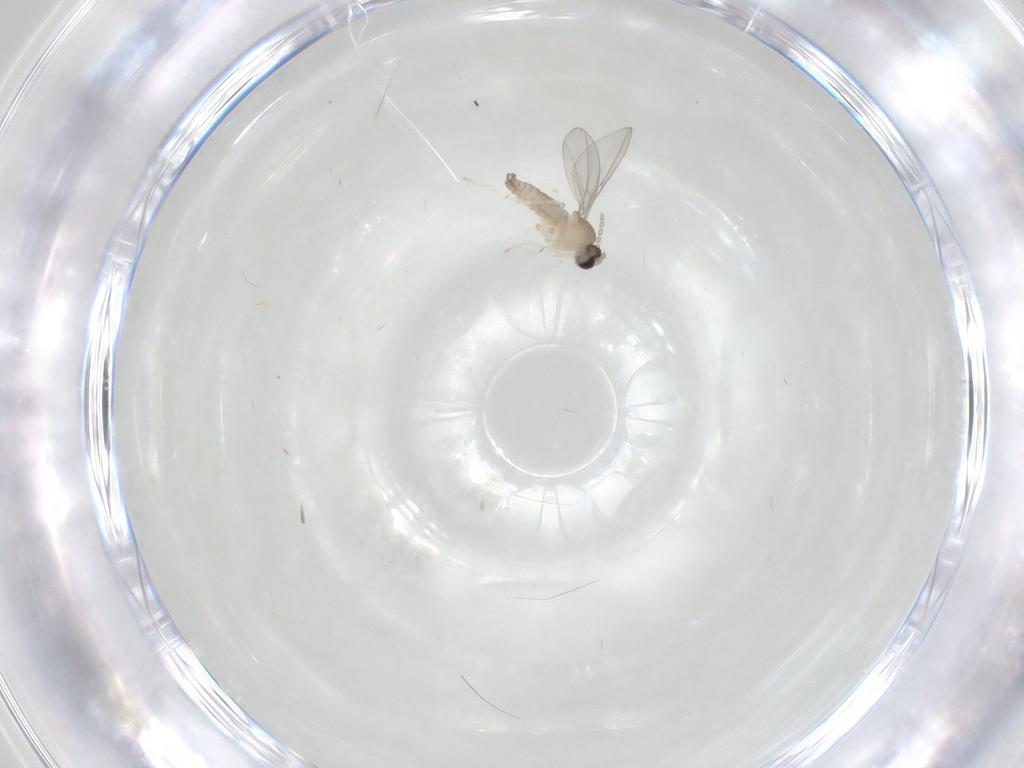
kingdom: Animalia
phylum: Arthropoda
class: Insecta
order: Diptera
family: Cecidomyiidae
